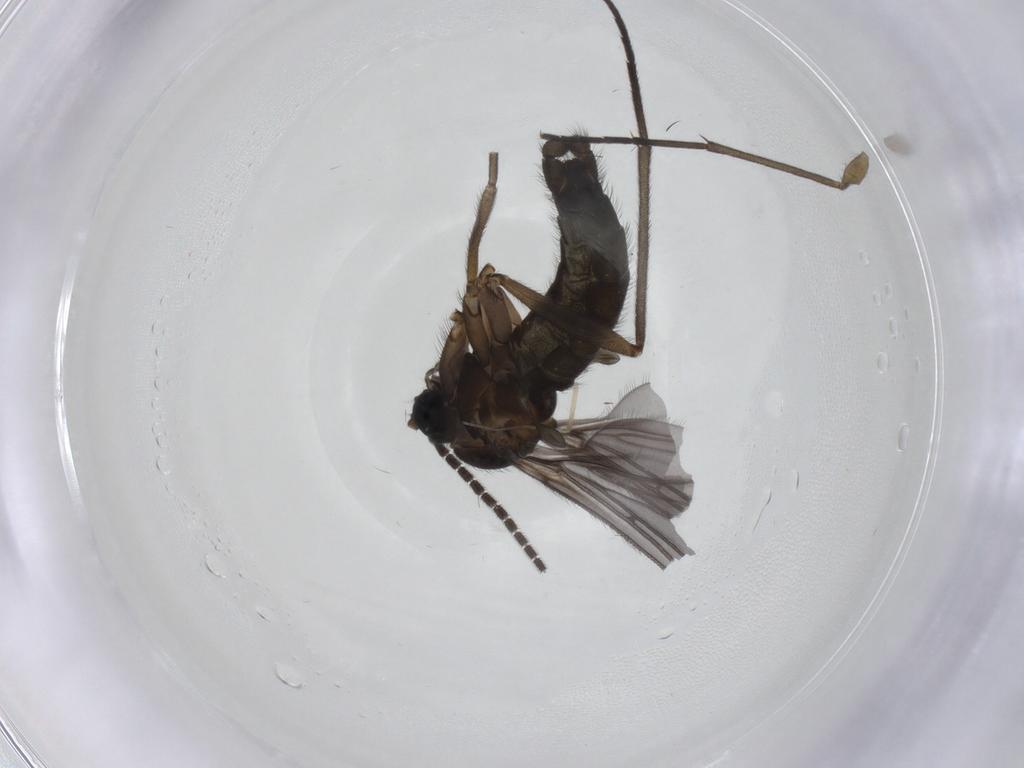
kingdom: Animalia
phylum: Arthropoda
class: Insecta
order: Diptera
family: Sciaridae
